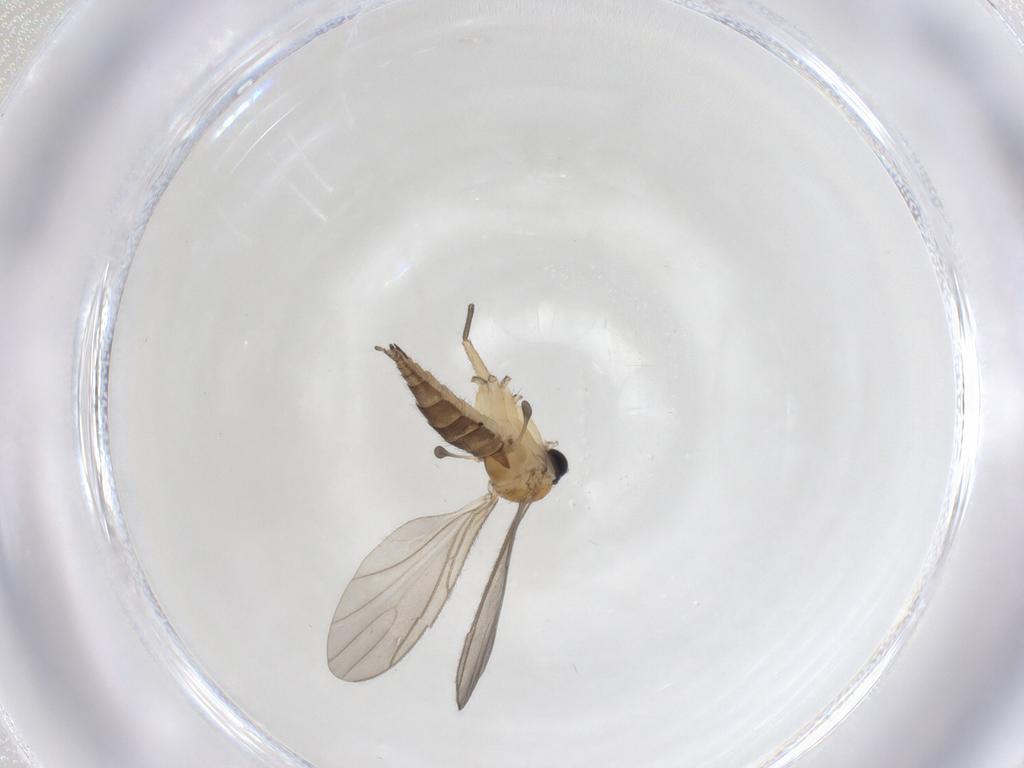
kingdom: Animalia
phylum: Arthropoda
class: Insecta
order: Diptera
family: Sciaridae
